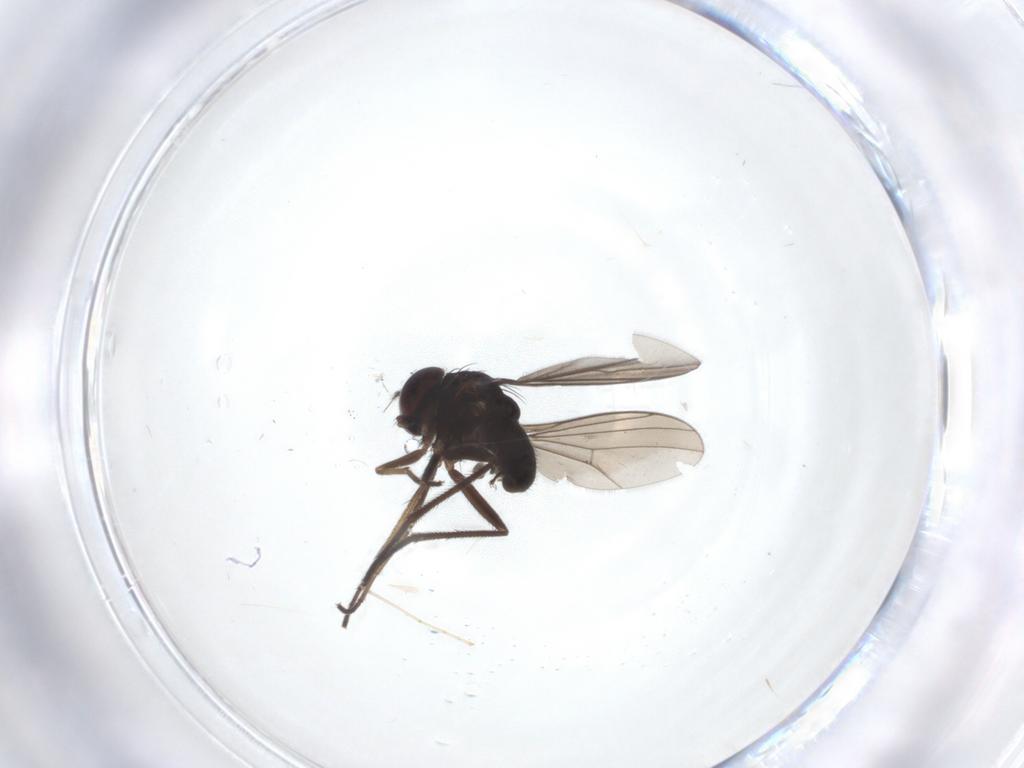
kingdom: Animalia
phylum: Arthropoda
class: Insecta
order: Diptera
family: Dolichopodidae
